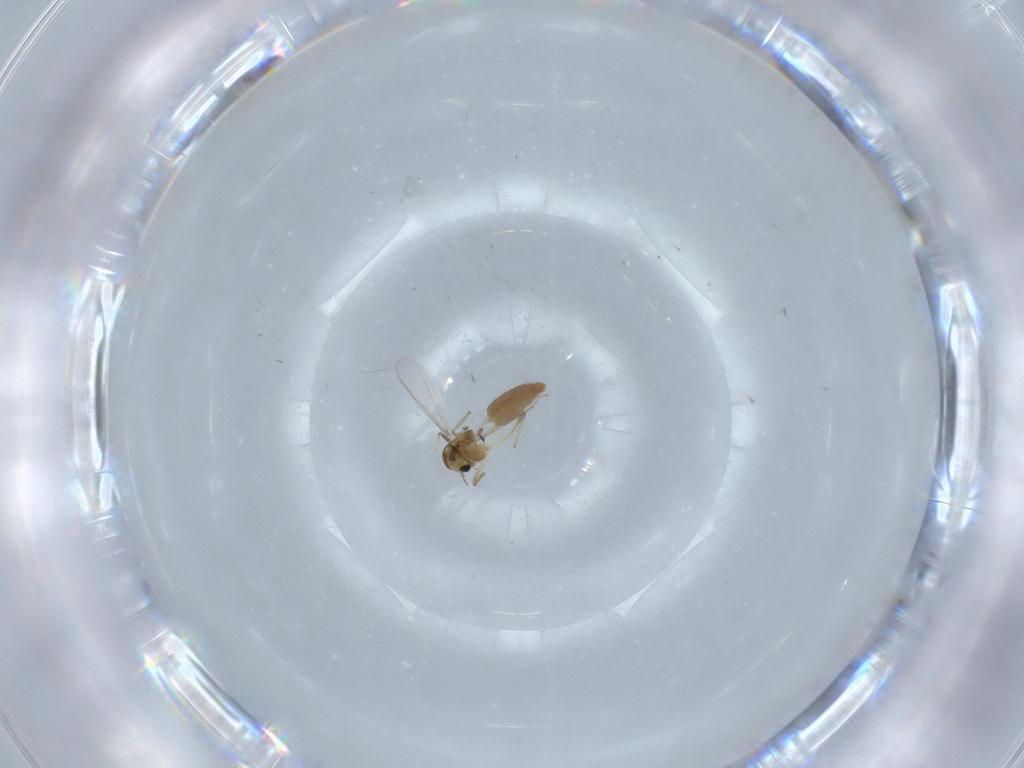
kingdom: Animalia
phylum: Arthropoda
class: Insecta
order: Diptera
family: Chironomidae
